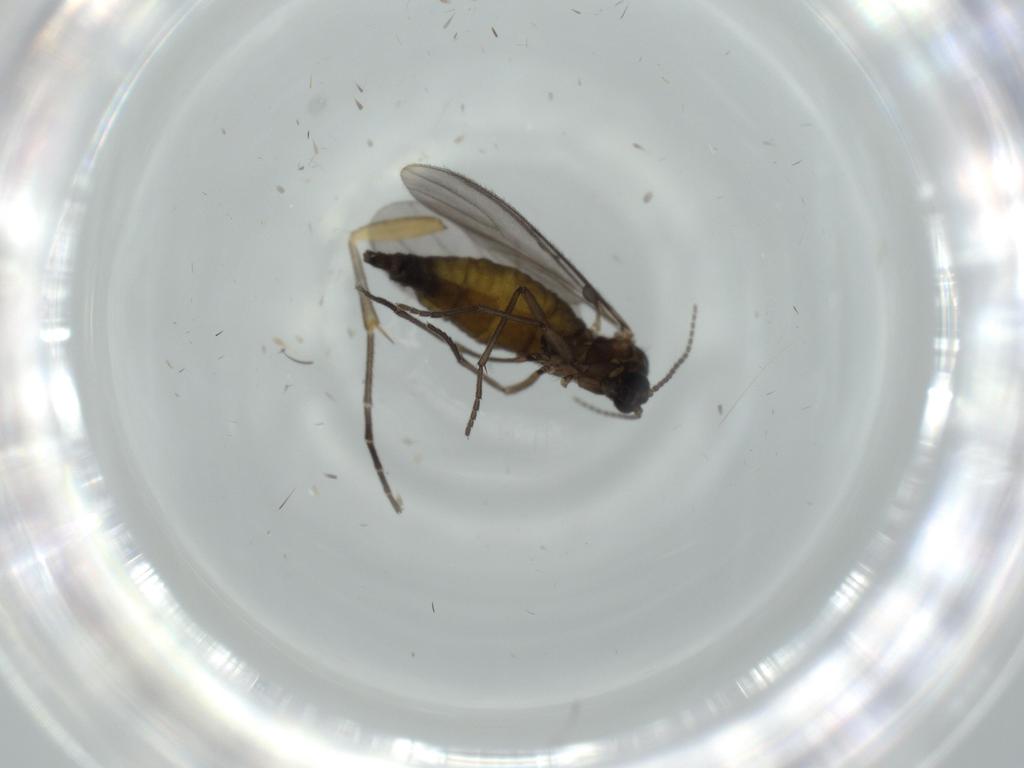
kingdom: Animalia
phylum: Arthropoda
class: Insecta
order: Diptera
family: Sciaridae
